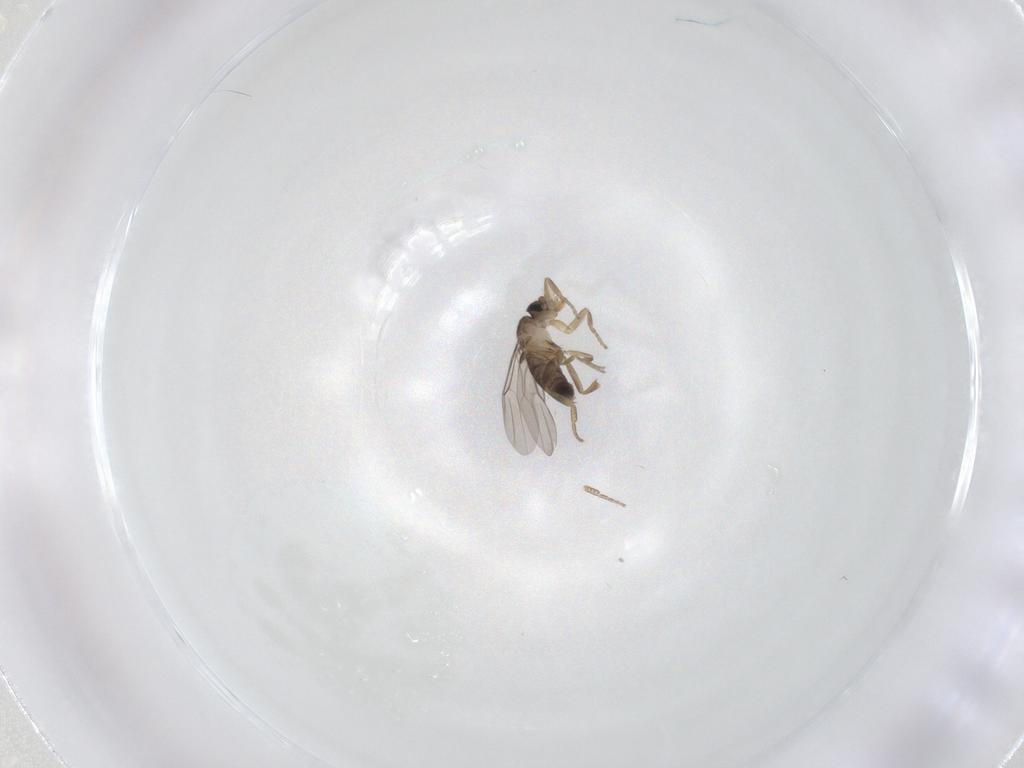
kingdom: Animalia
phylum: Arthropoda
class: Insecta
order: Diptera
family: Phoridae
